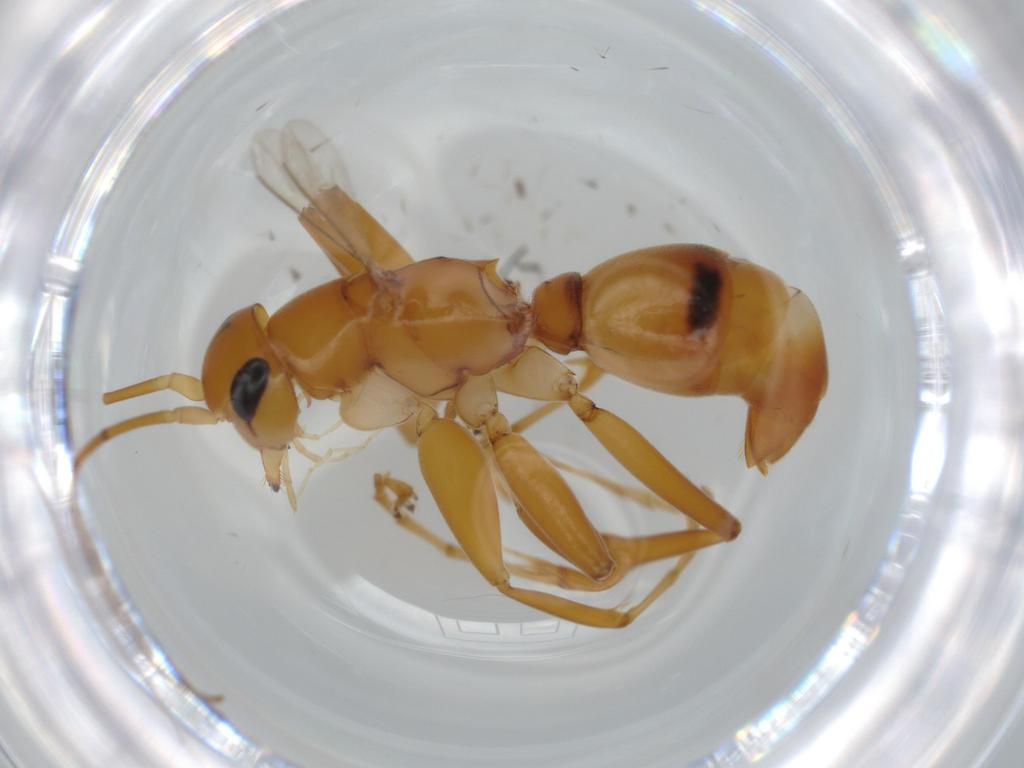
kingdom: Animalia
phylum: Arthropoda
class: Insecta
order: Hymenoptera
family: Rhopalosomatidae
